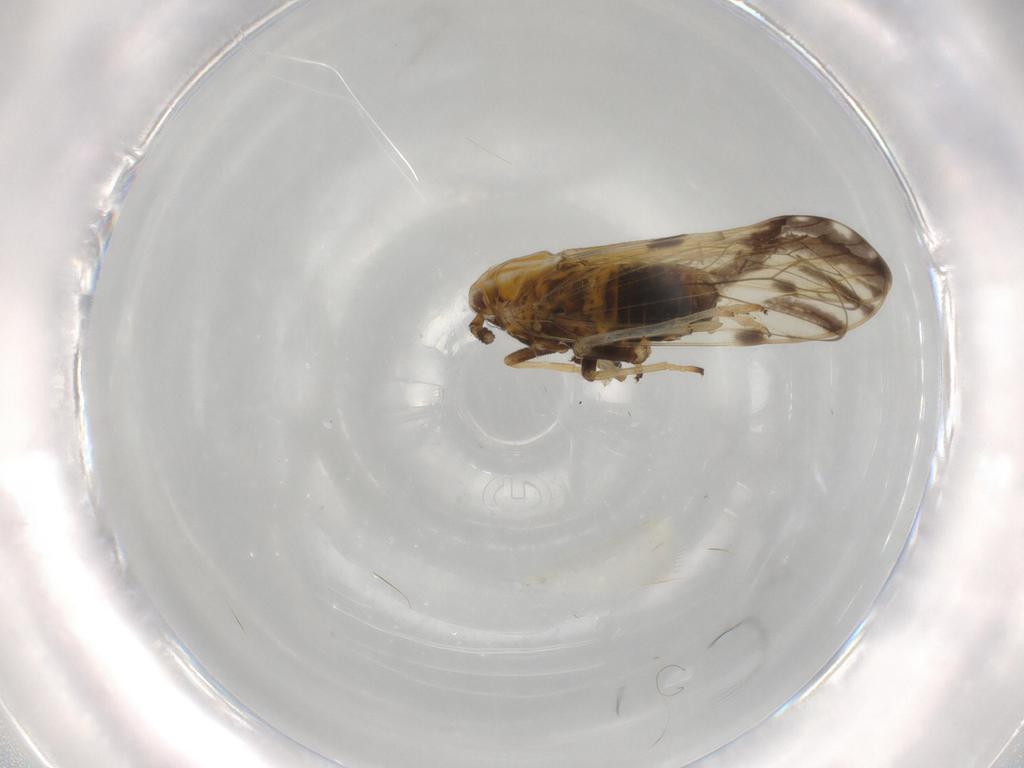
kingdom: Animalia
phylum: Arthropoda
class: Insecta
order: Hemiptera
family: Delphacidae
